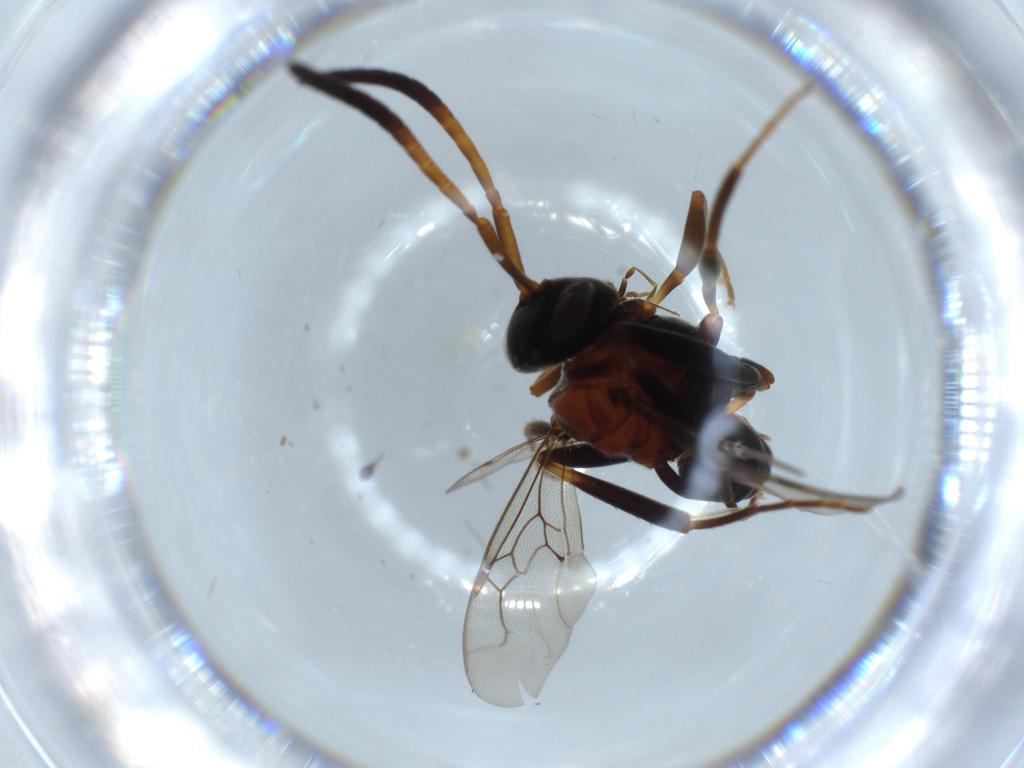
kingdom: Animalia
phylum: Arthropoda
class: Insecta
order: Hymenoptera
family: Evaniidae
